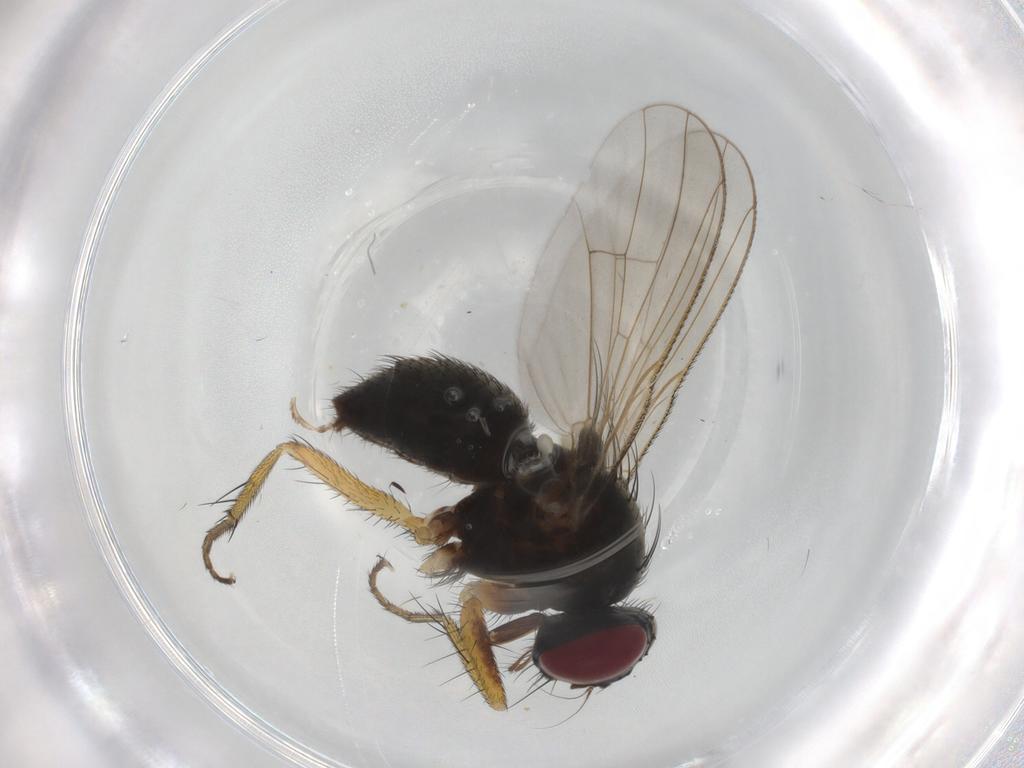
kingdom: Animalia
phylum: Arthropoda
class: Insecta
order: Diptera
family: Muscidae
